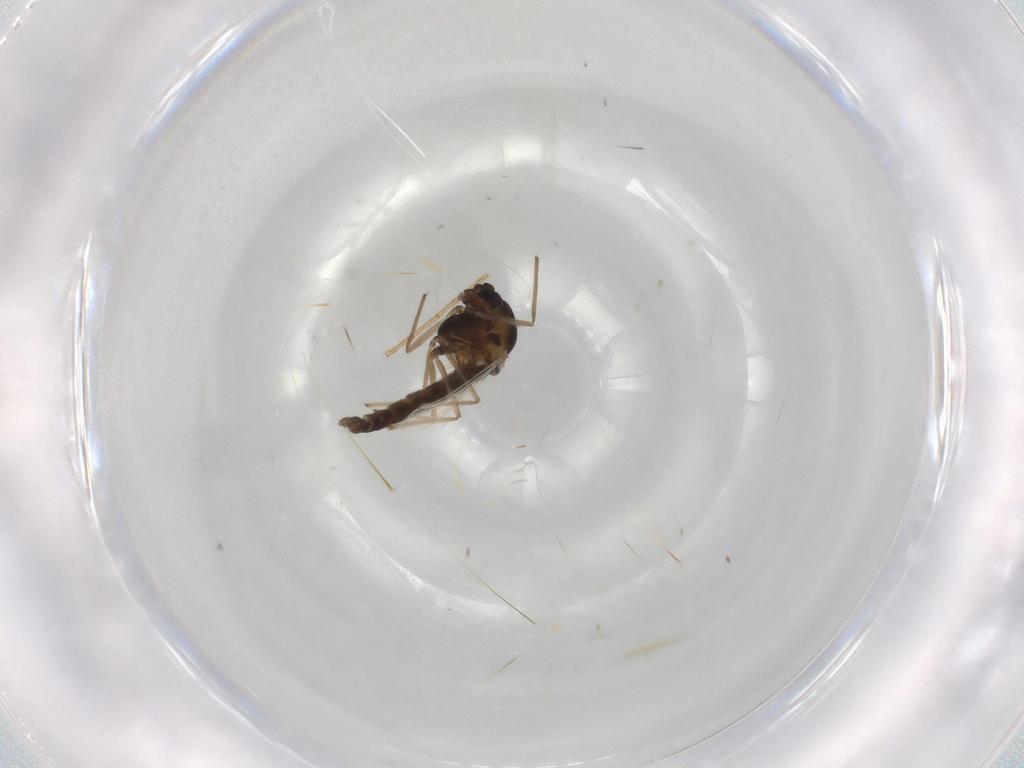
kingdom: Animalia
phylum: Arthropoda
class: Insecta
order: Diptera
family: Chironomidae
